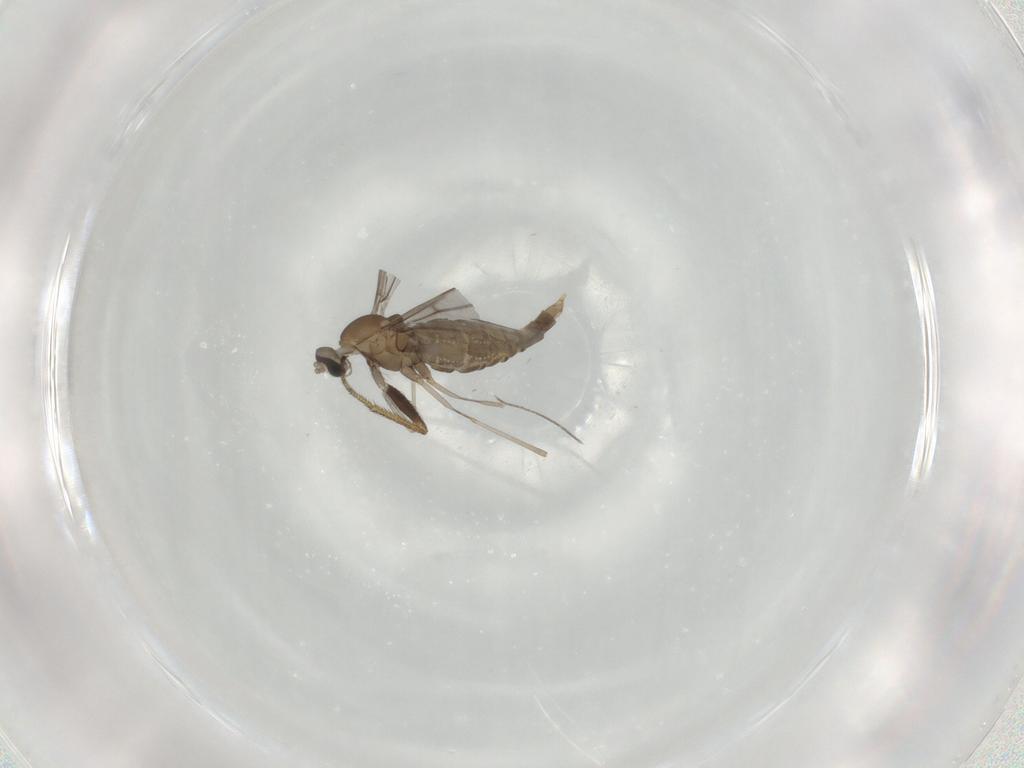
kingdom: Animalia
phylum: Arthropoda
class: Insecta
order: Diptera
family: Cecidomyiidae
